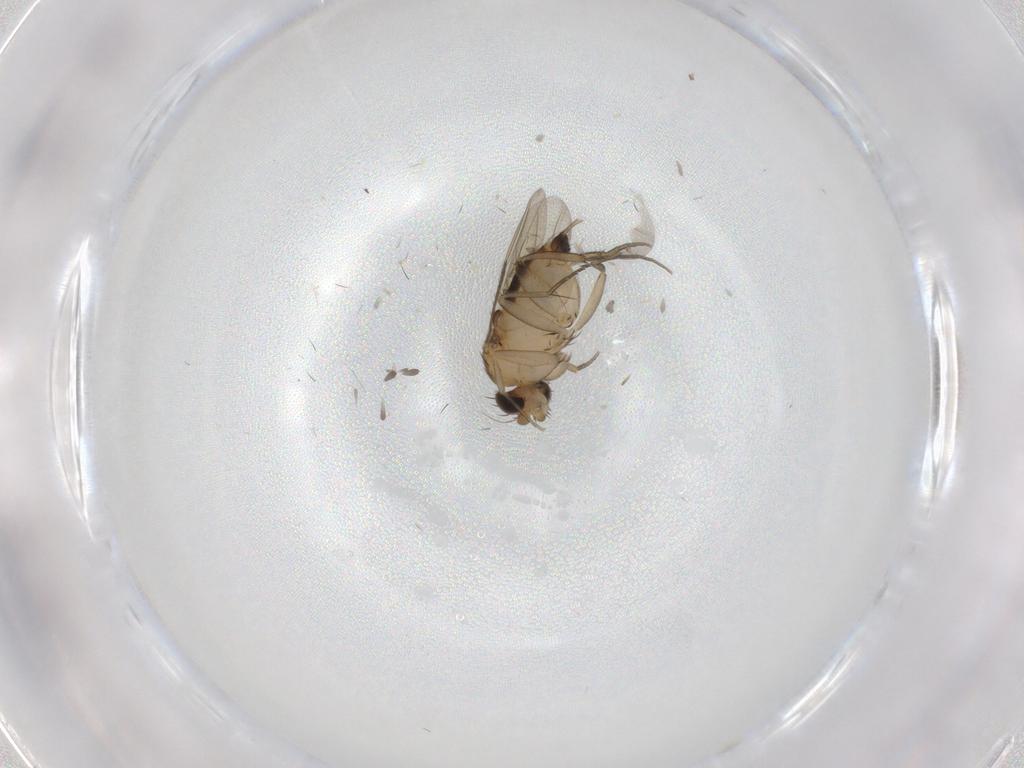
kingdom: Animalia
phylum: Arthropoda
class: Insecta
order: Diptera
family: Phoridae
